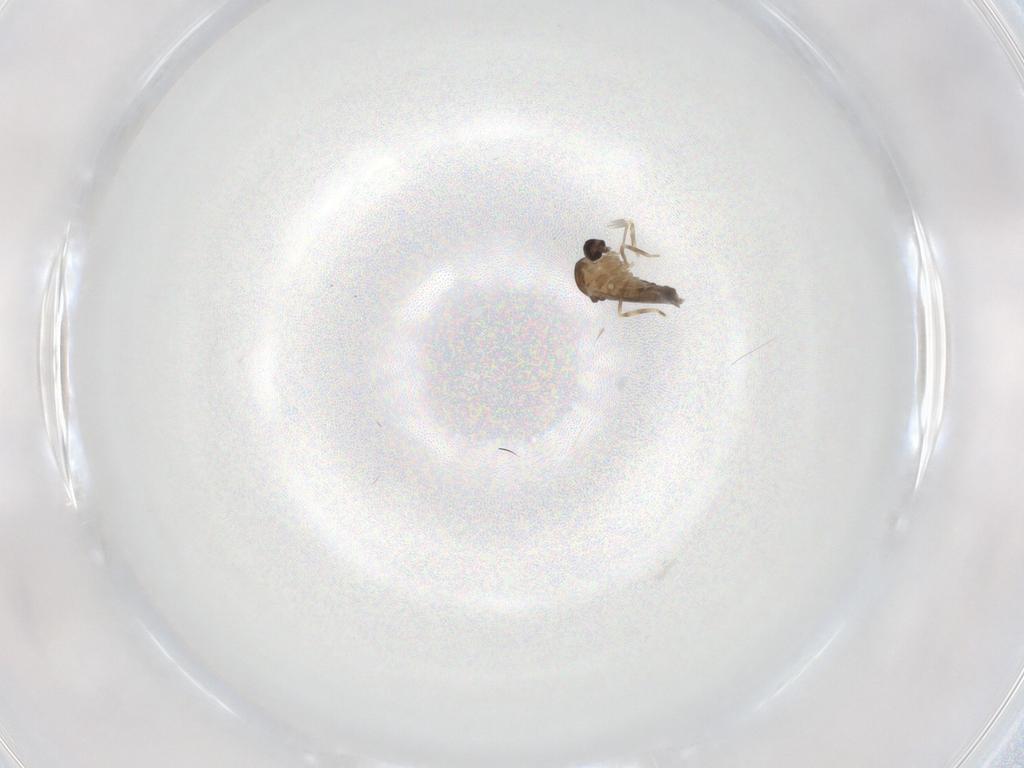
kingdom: Animalia
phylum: Arthropoda
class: Insecta
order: Diptera
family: Ceratopogonidae
